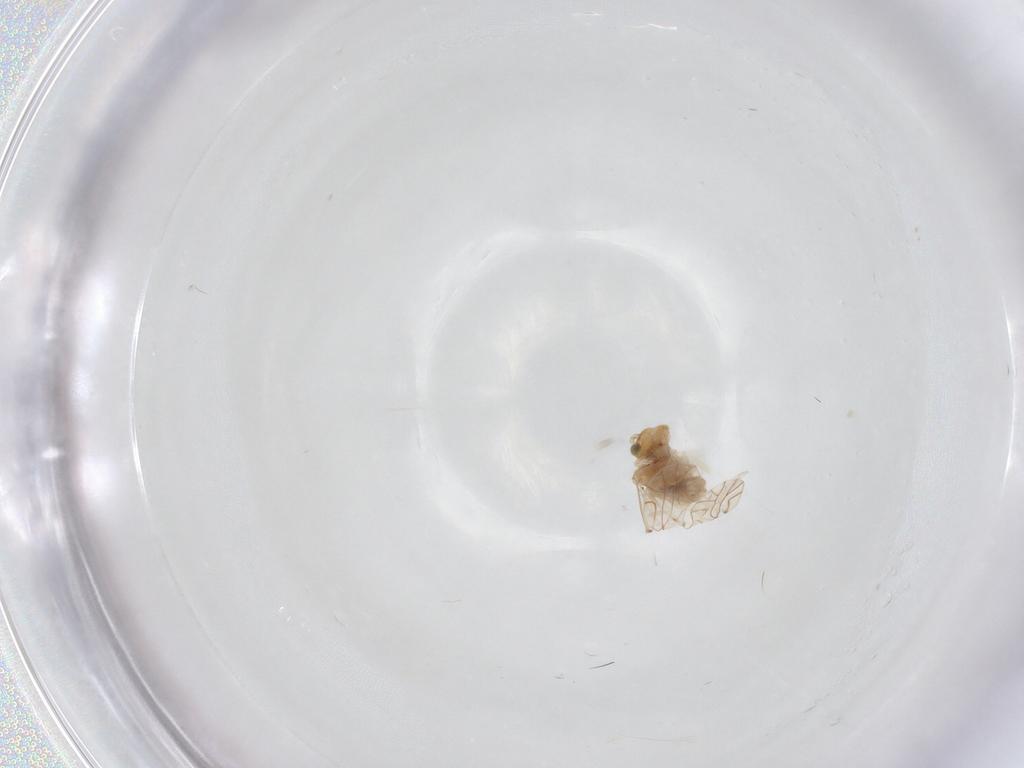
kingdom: Animalia
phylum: Arthropoda
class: Insecta
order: Psocodea
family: Lachesillidae
